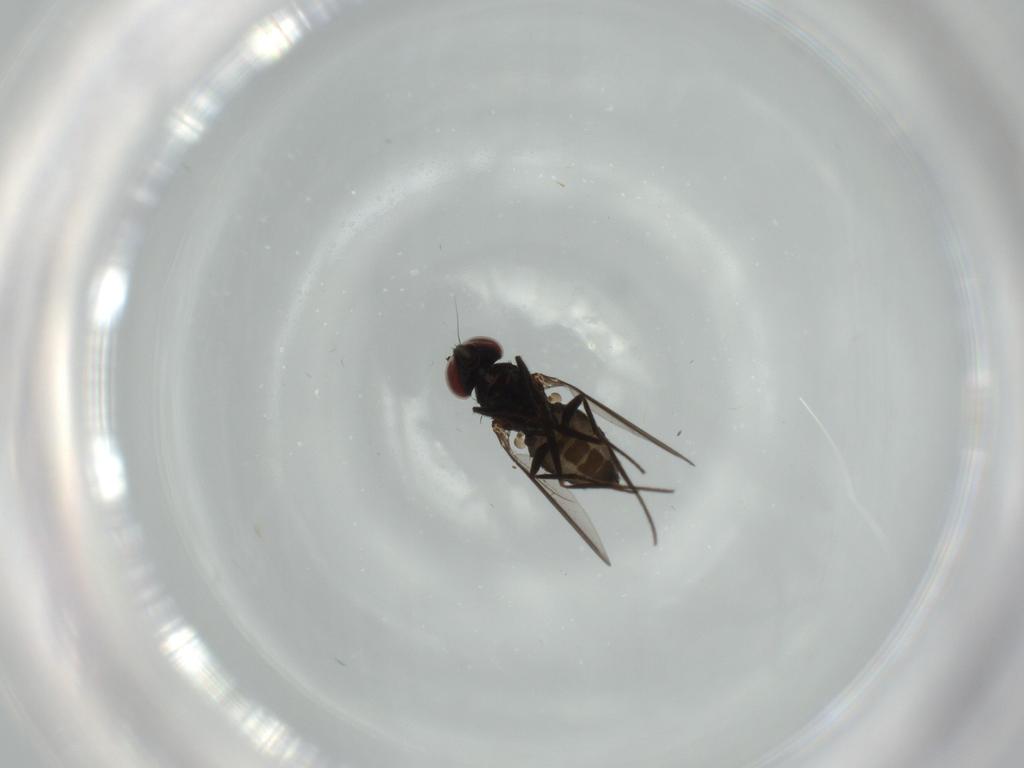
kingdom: Animalia
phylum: Arthropoda
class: Insecta
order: Diptera
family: Dolichopodidae
